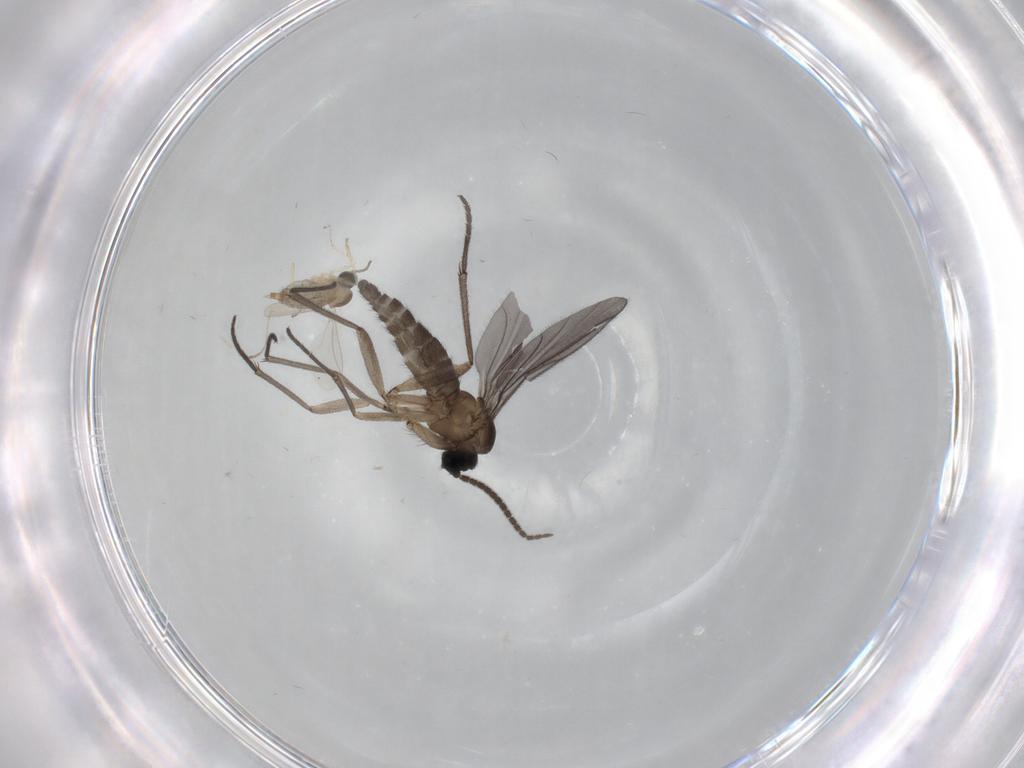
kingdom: Animalia
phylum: Arthropoda
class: Insecta
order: Diptera
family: Sciaridae
